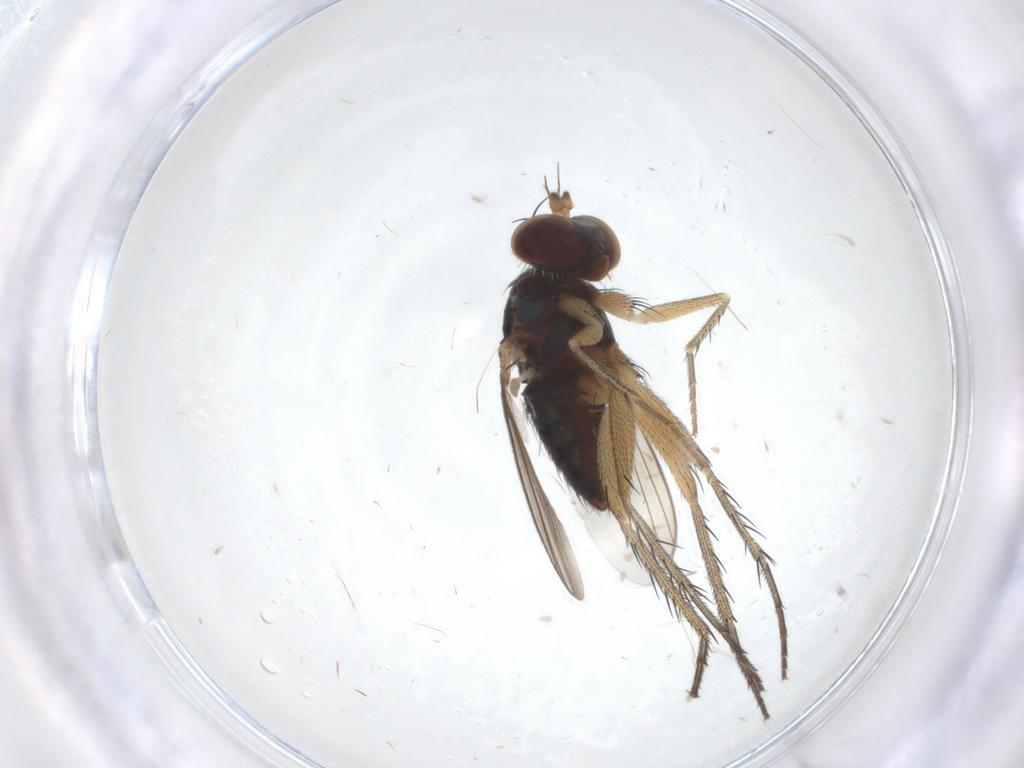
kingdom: Animalia
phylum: Arthropoda
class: Insecta
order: Diptera
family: Dolichopodidae
